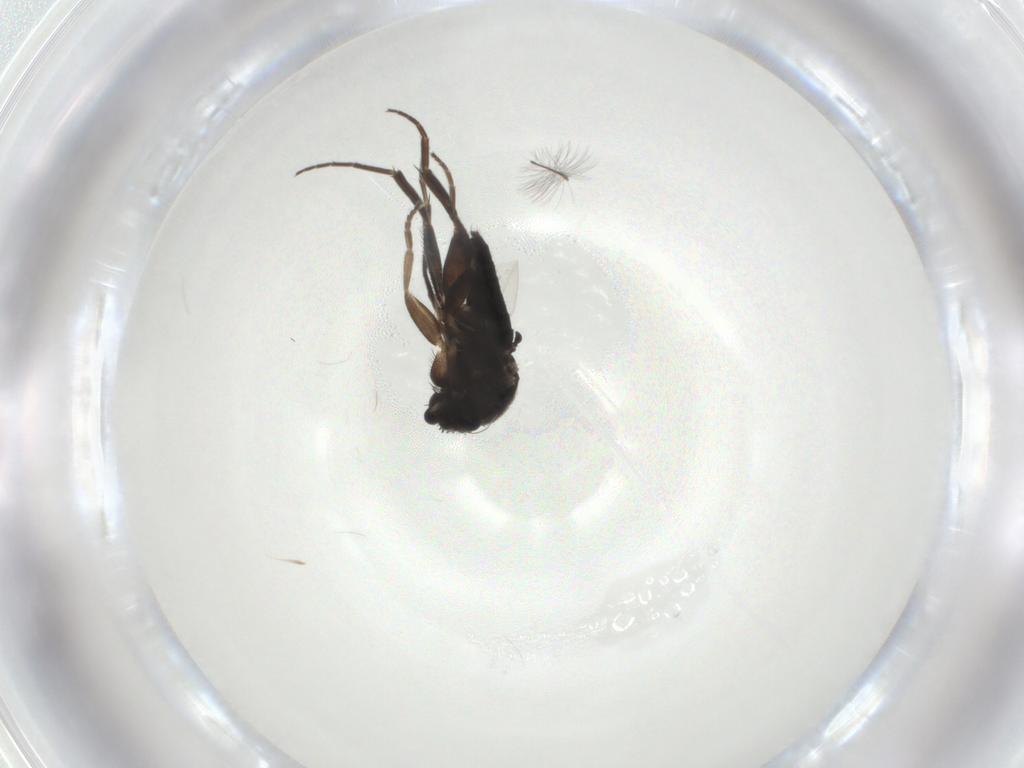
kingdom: Animalia
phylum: Arthropoda
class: Insecta
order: Diptera
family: Phoridae
